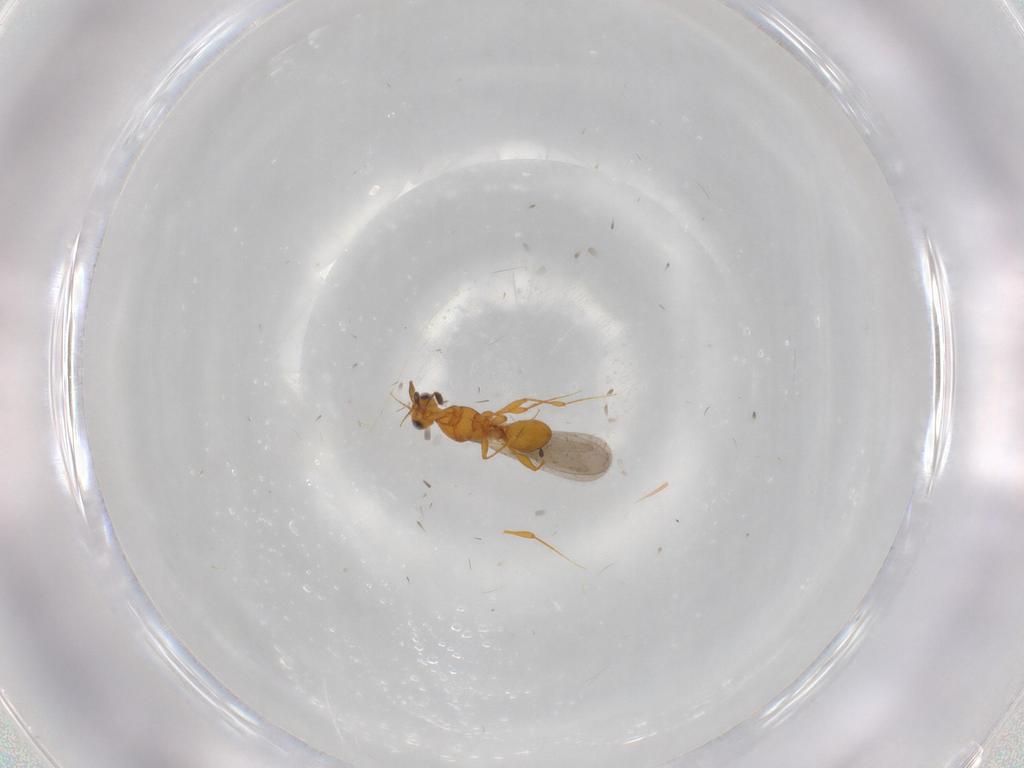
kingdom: Animalia
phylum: Arthropoda
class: Insecta
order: Hymenoptera
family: Platygastridae
